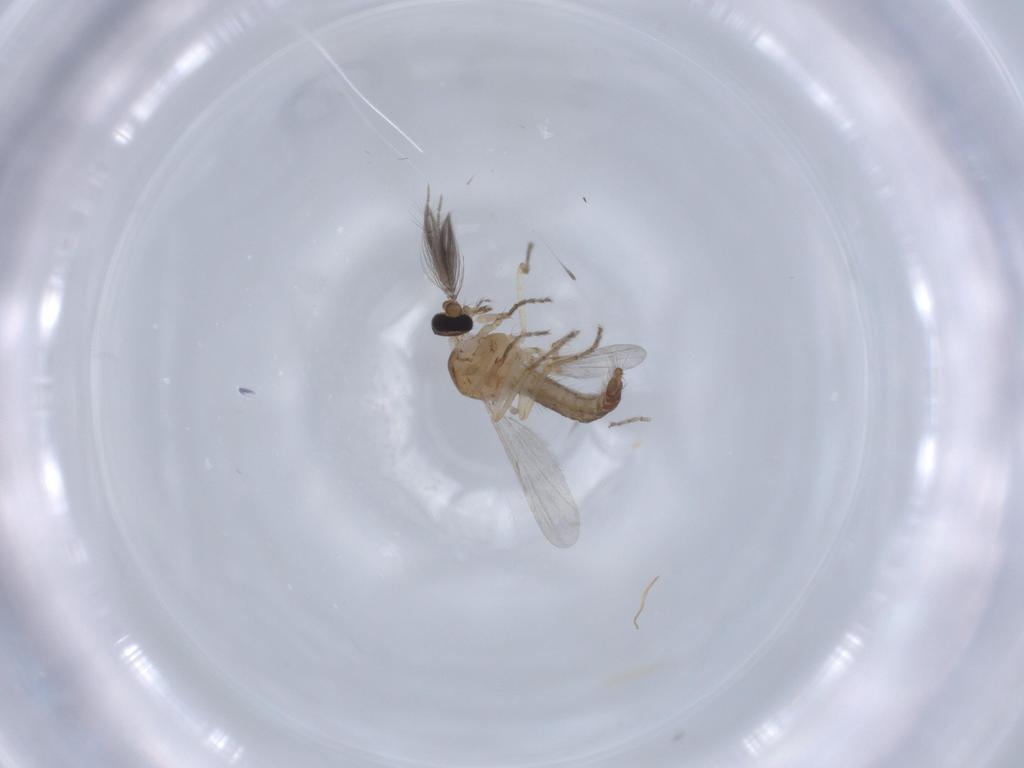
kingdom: Animalia
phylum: Arthropoda
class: Insecta
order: Diptera
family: Ceratopogonidae
